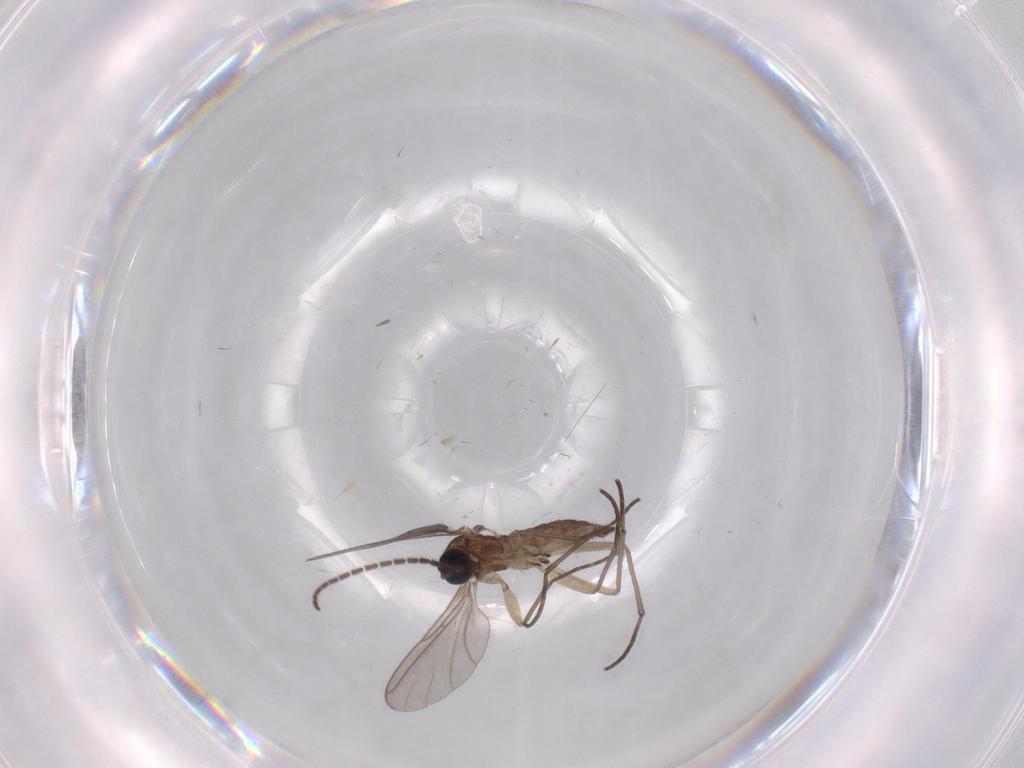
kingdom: Animalia
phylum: Arthropoda
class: Insecta
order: Diptera
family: Sciaridae
